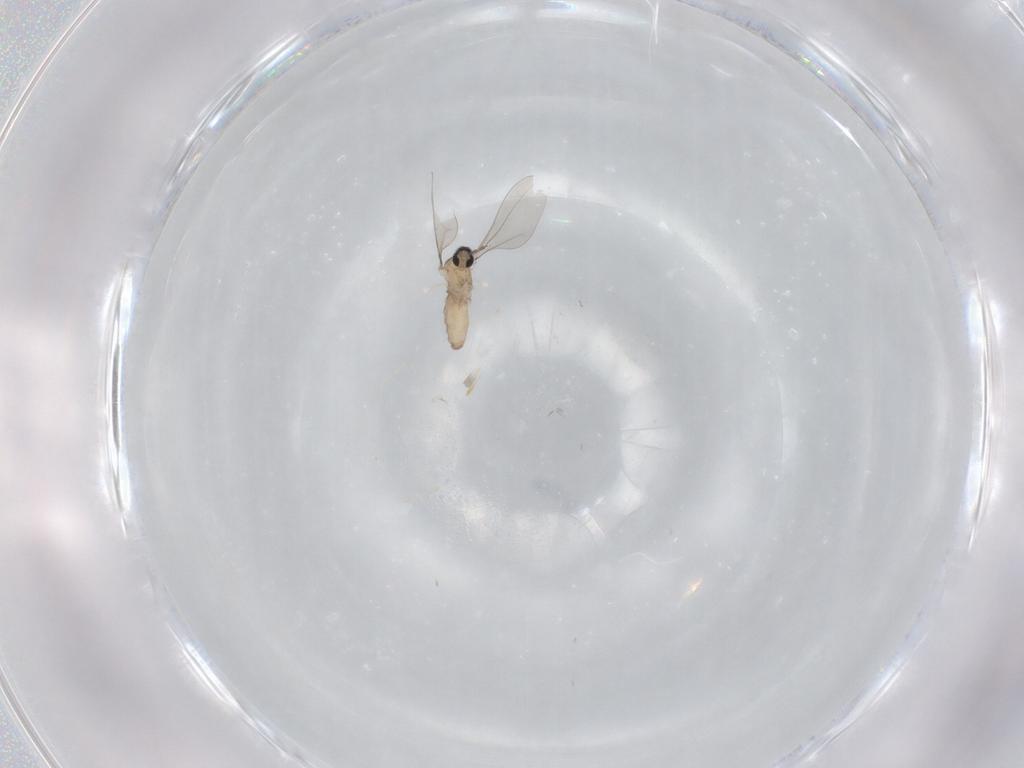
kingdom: Animalia
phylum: Arthropoda
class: Insecta
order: Diptera
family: Cecidomyiidae
